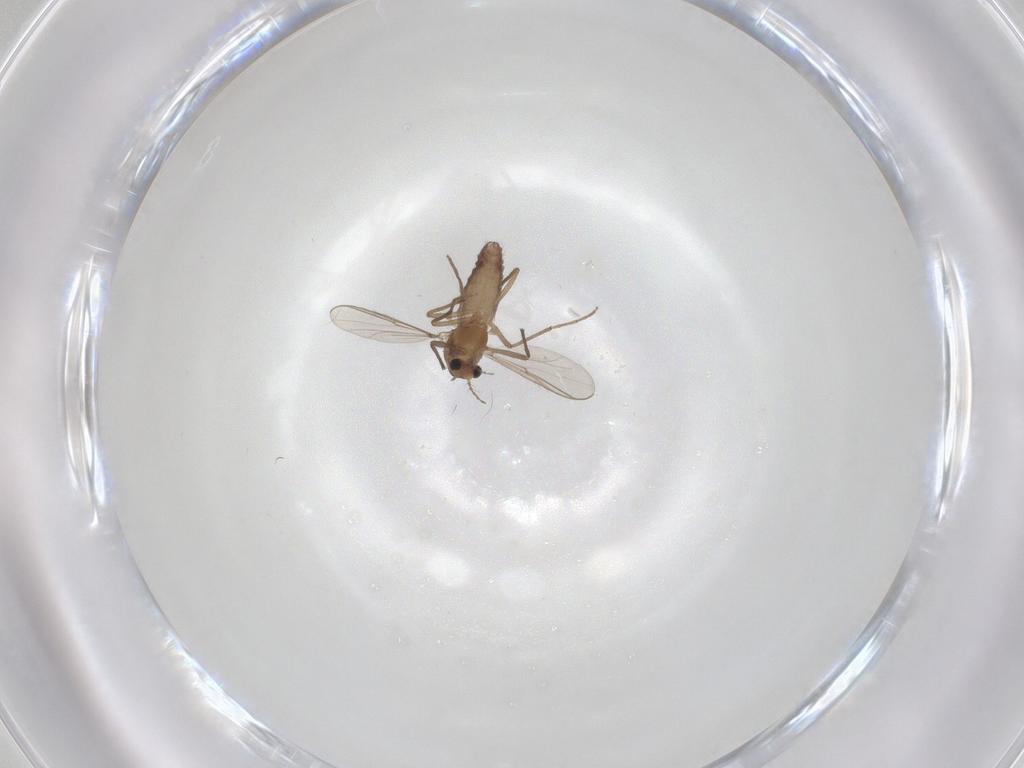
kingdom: Animalia
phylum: Arthropoda
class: Insecta
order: Diptera
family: Chironomidae
